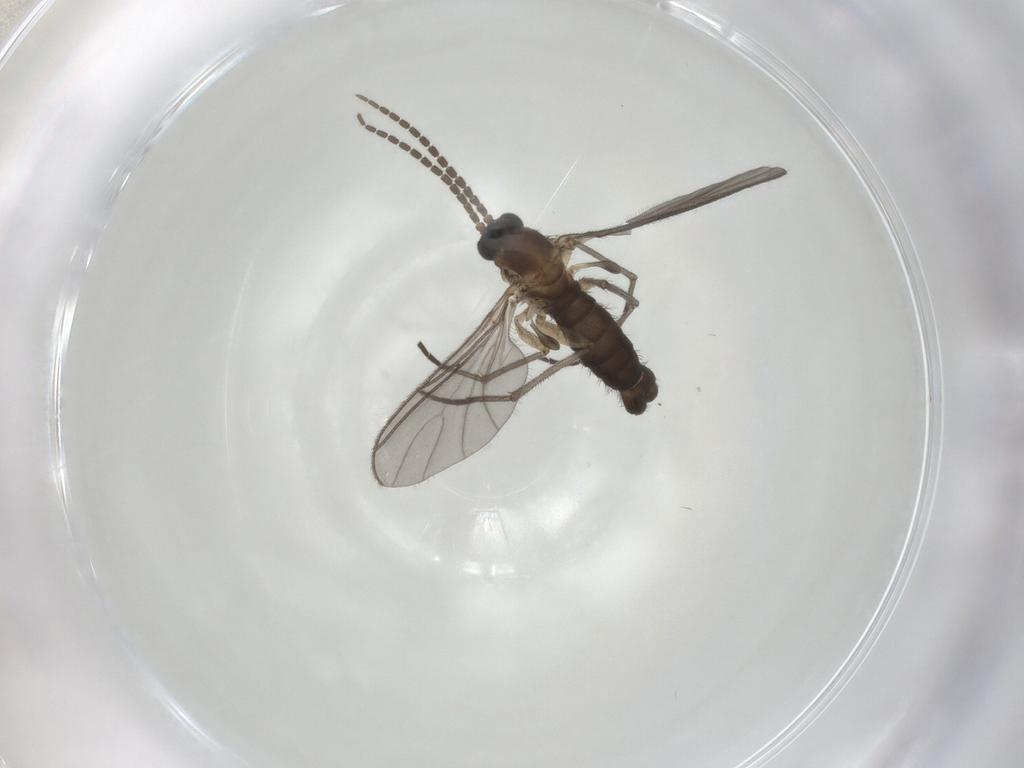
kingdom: Animalia
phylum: Arthropoda
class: Insecta
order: Diptera
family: Sciaridae
